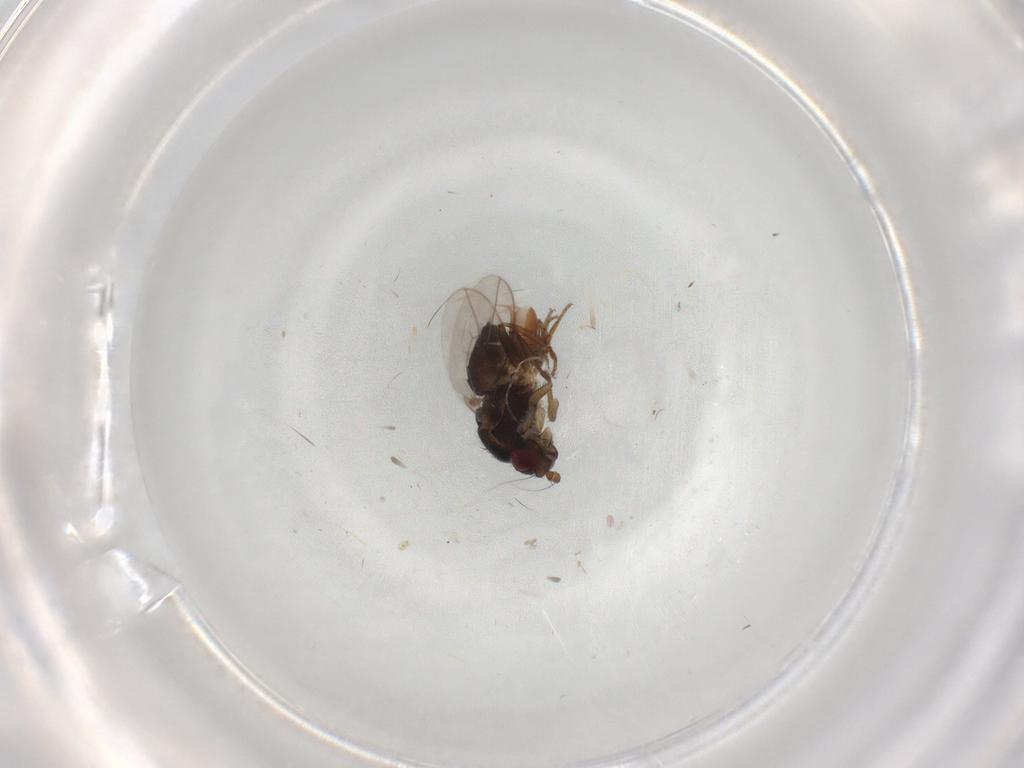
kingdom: Animalia
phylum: Arthropoda
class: Insecta
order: Diptera
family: Sphaeroceridae
